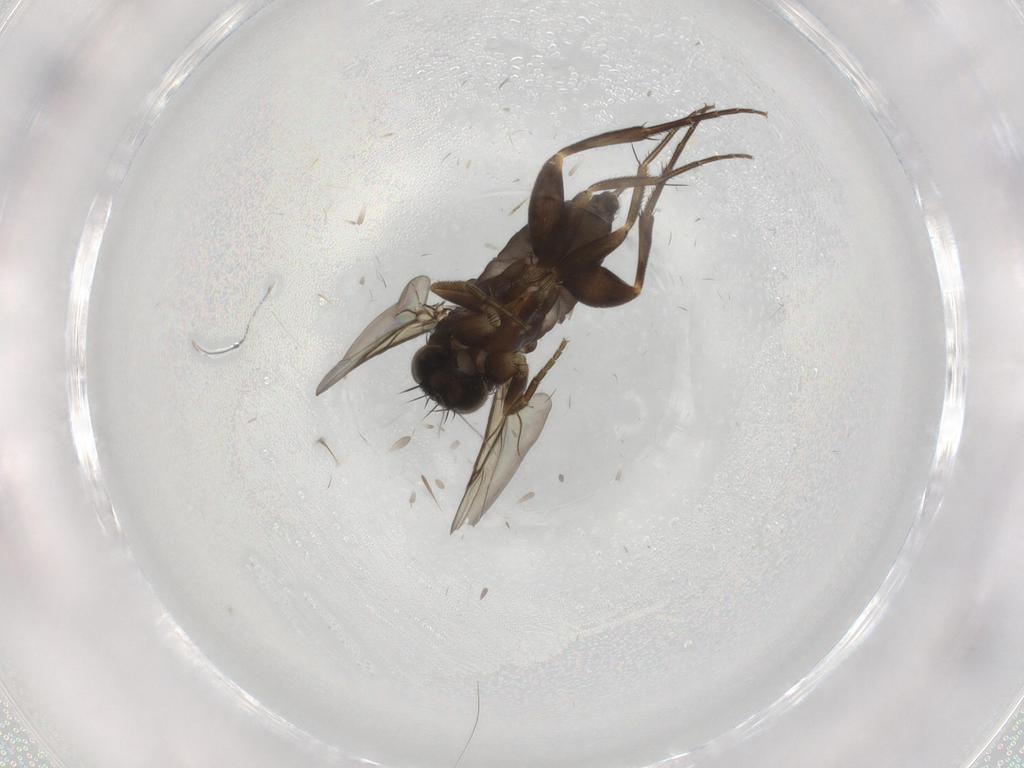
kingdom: Animalia
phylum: Arthropoda
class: Insecta
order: Diptera
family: Phoridae
